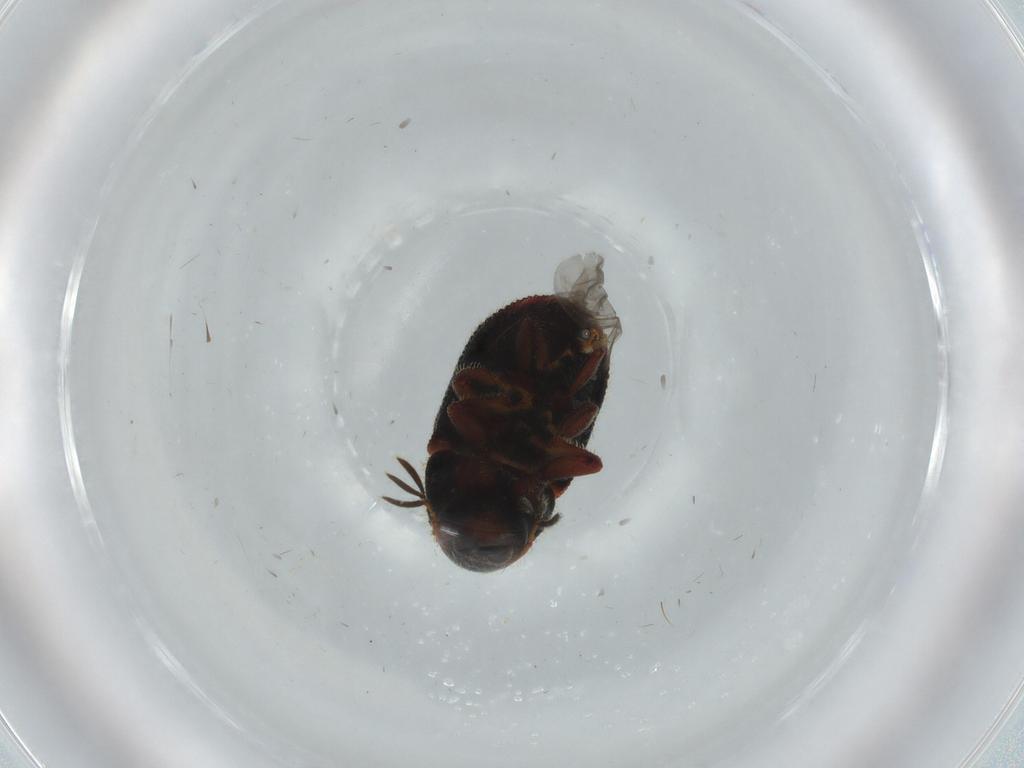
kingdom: Animalia
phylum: Arthropoda
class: Insecta
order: Coleoptera
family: Curculionidae
